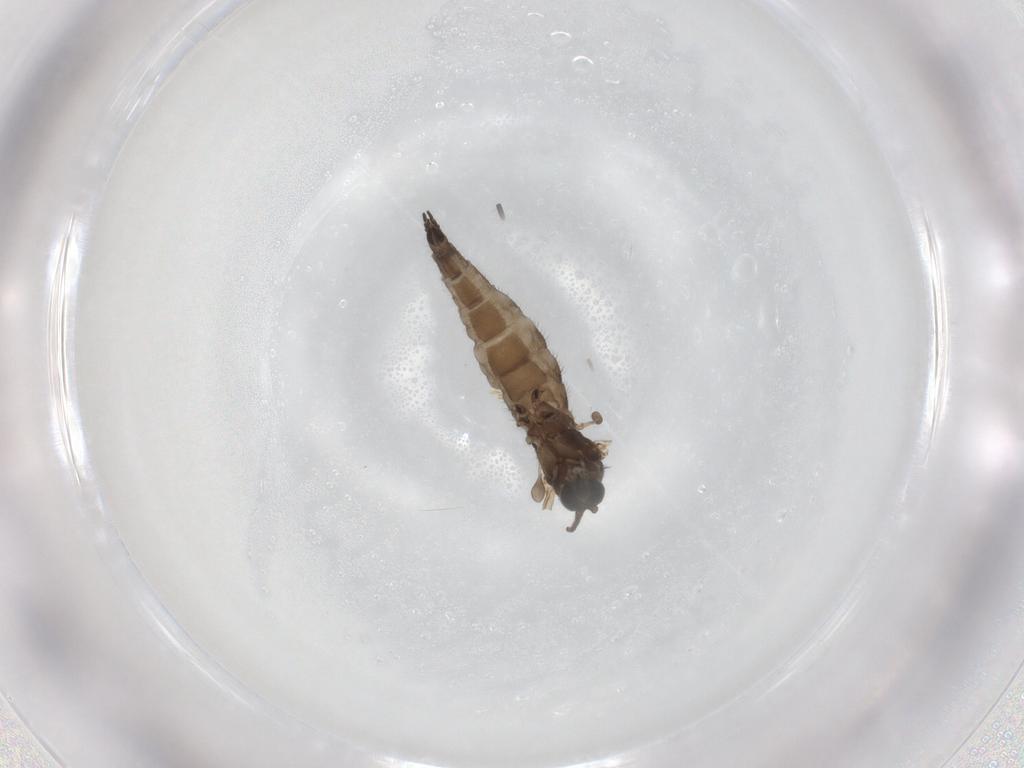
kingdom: Animalia
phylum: Arthropoda
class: Insecta
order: Diptera
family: Sciaridae
